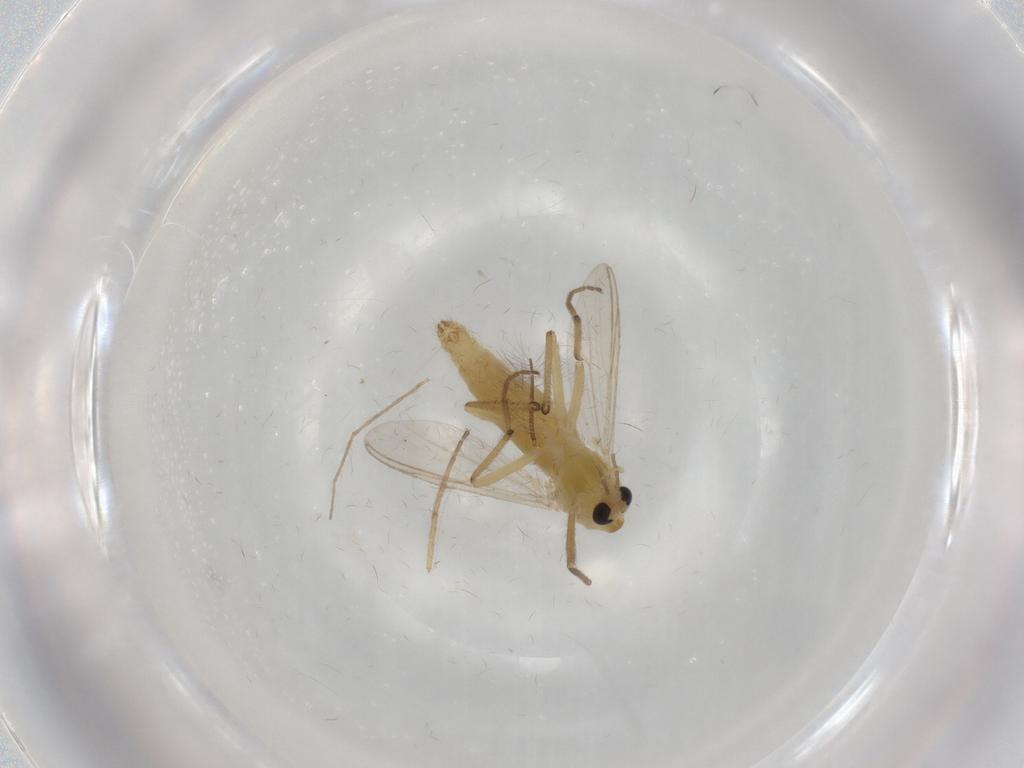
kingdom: Animalia
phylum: Arthropoda
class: Insecta
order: Diptera
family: Chironomidae
